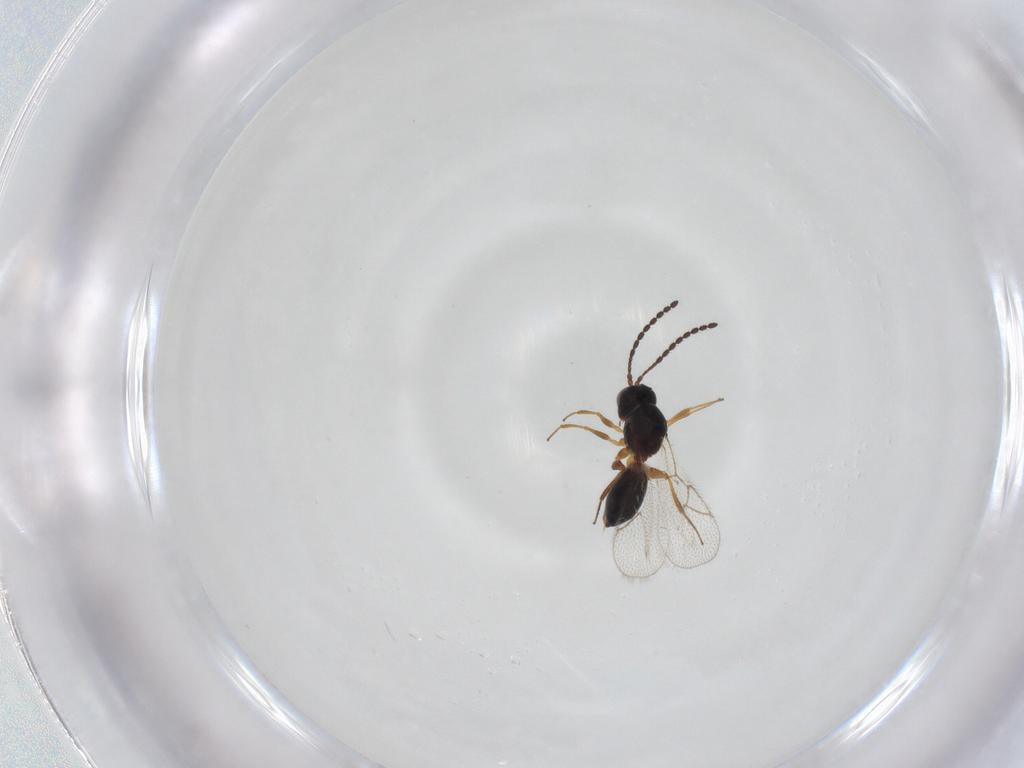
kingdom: Animalia
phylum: Arthropoda
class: Insecta
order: Hymenoptera
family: Figitidae
